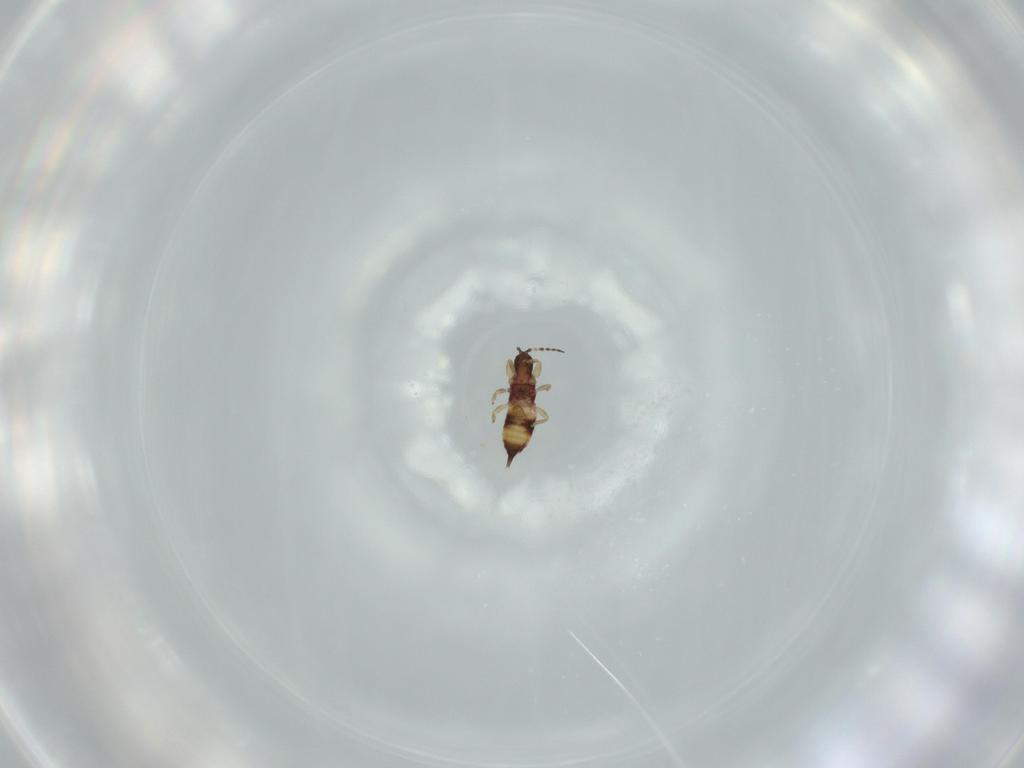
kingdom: Animalia
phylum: Arthropoda
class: Insecta
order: Thysanoptera
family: Phlaeothripidae
